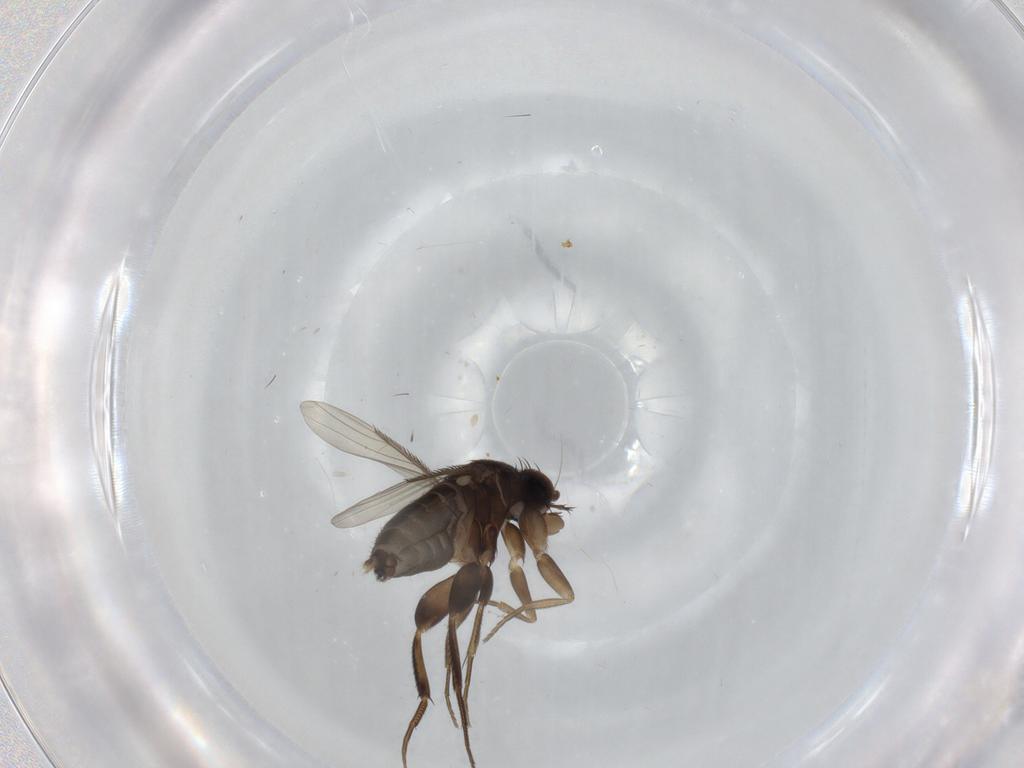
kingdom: Animalia
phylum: Arthropoda
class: Insecta
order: Diptera
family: Phoridae
